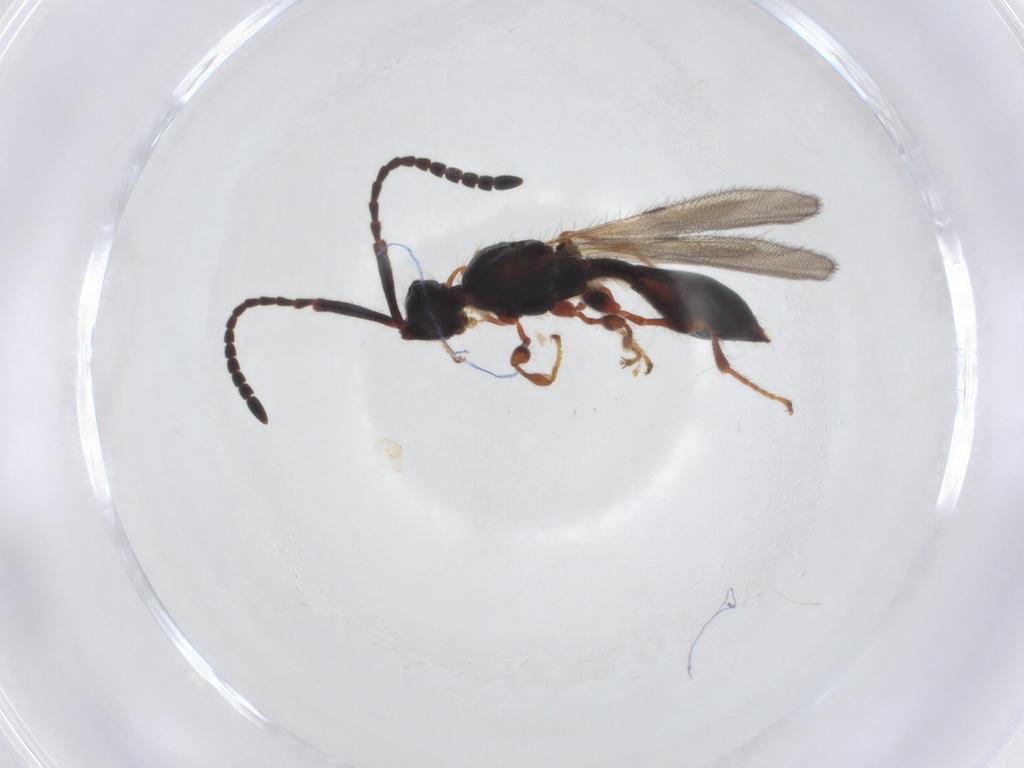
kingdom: Animalia
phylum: Arthropoda
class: Insecta
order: Hymenoptera
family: Diapriidae
